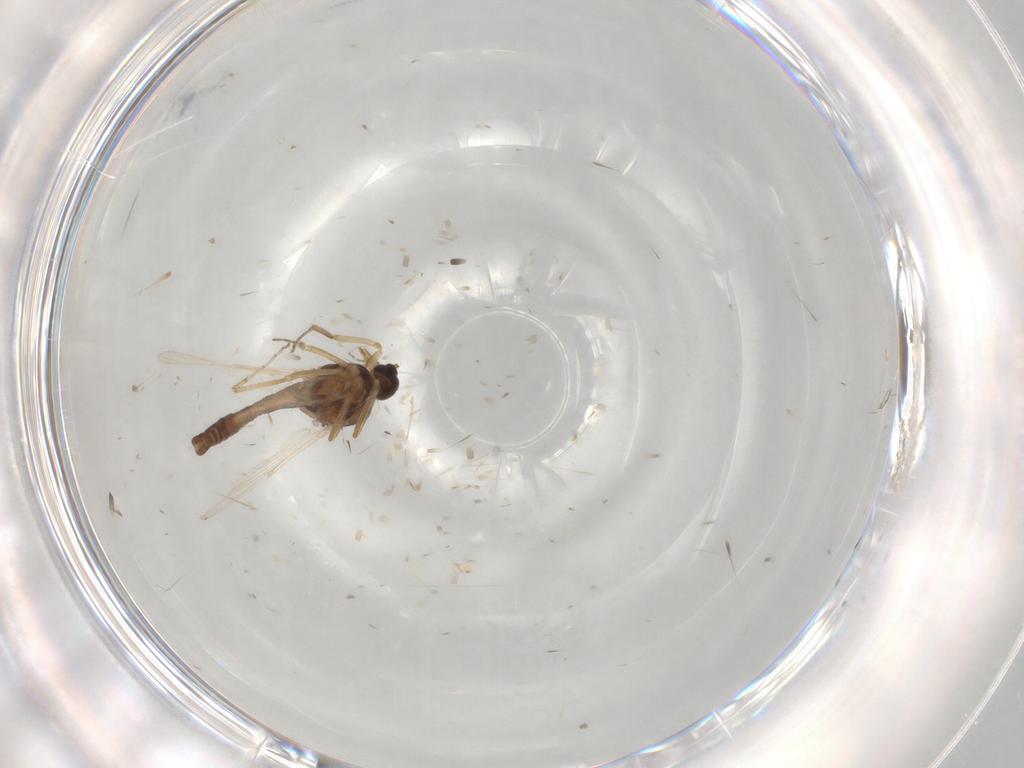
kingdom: Animalia
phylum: Arthropoda
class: Insecta
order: Diptera
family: Ceratopogonidae
